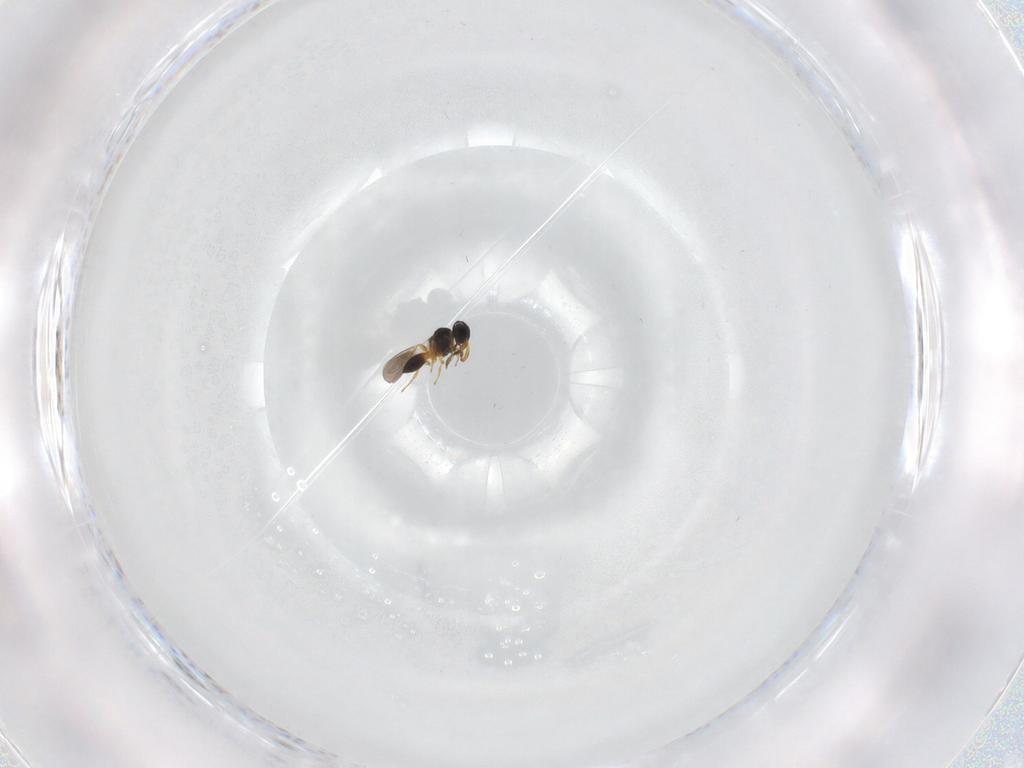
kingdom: Animalia
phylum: Arthropoda
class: Insecta
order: Hymenoptera
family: Platygastridae
